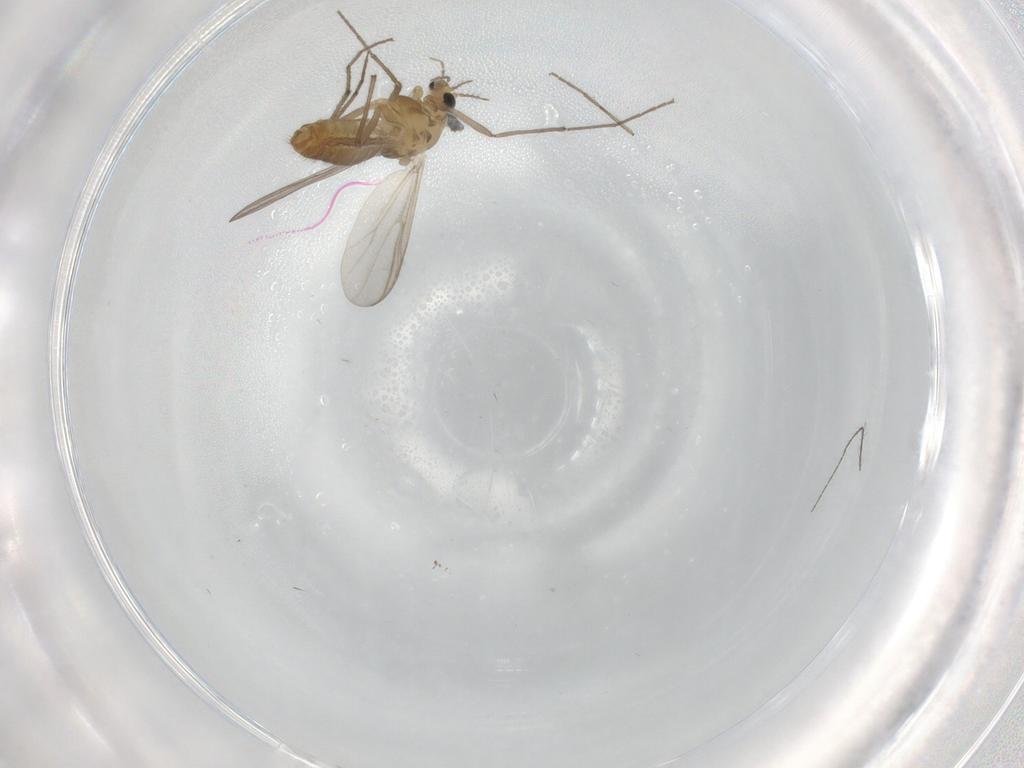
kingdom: Animalia
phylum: Arthropoda
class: Insecta
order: Diptera
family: Chironomidae
